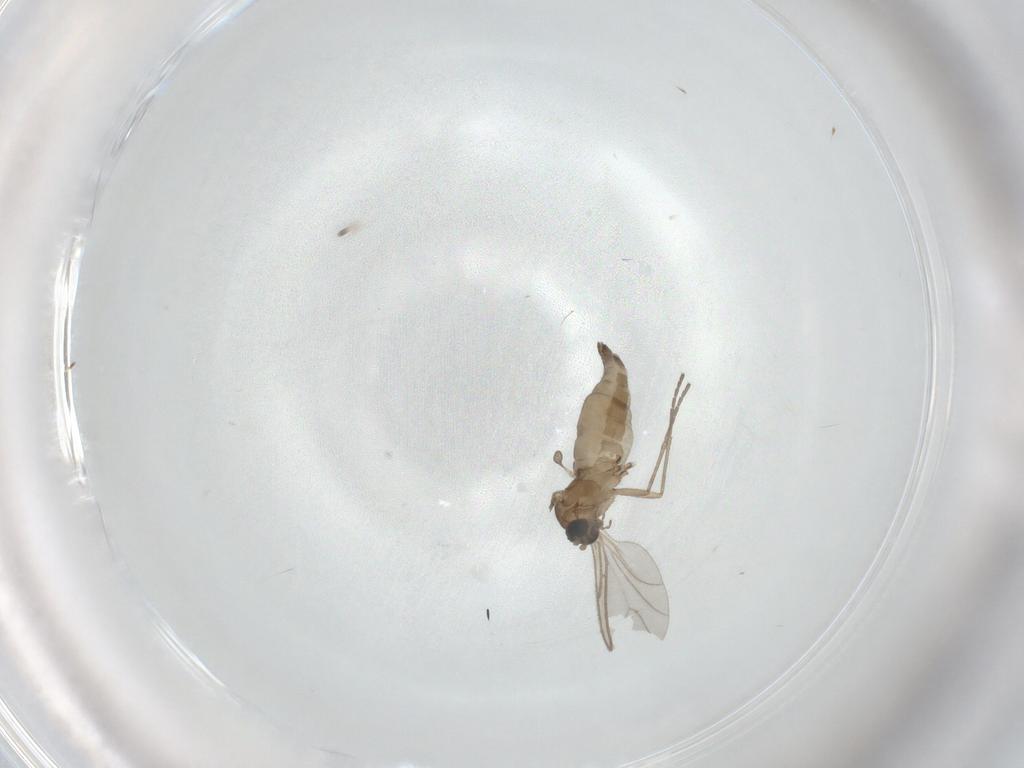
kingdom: Animalia
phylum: Arthropoda
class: Insecta
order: Diptera
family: Sciaridae
